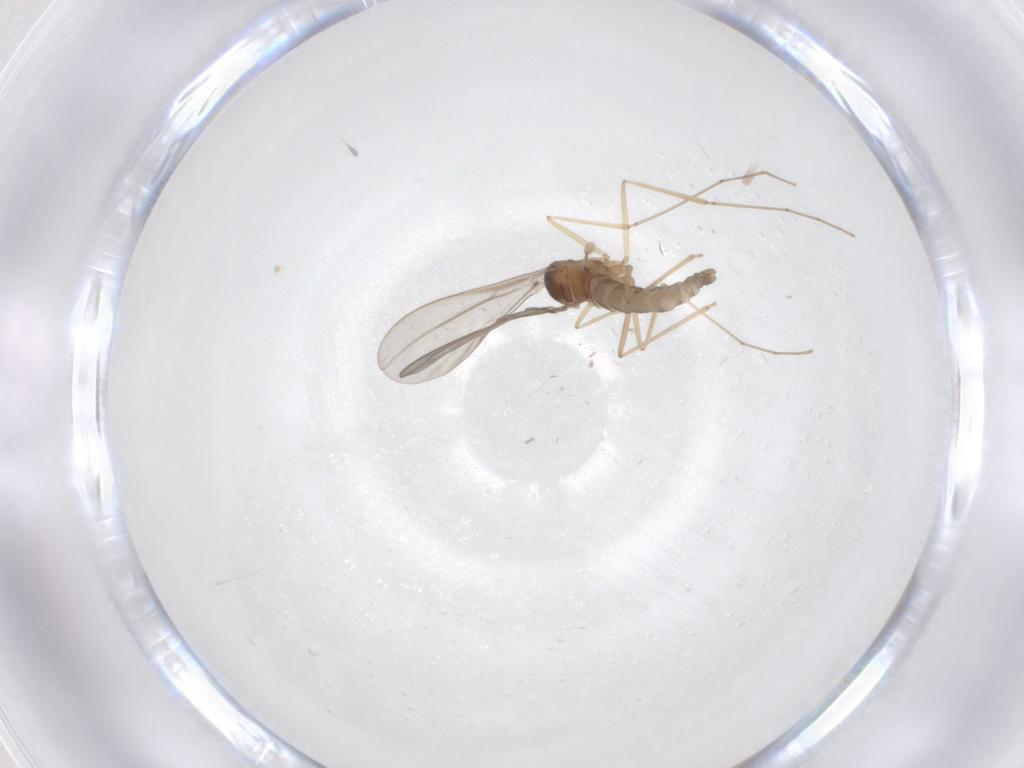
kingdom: Animalia
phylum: Arthropoda
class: Insecta
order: Diptera
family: Cecidomyiidae
